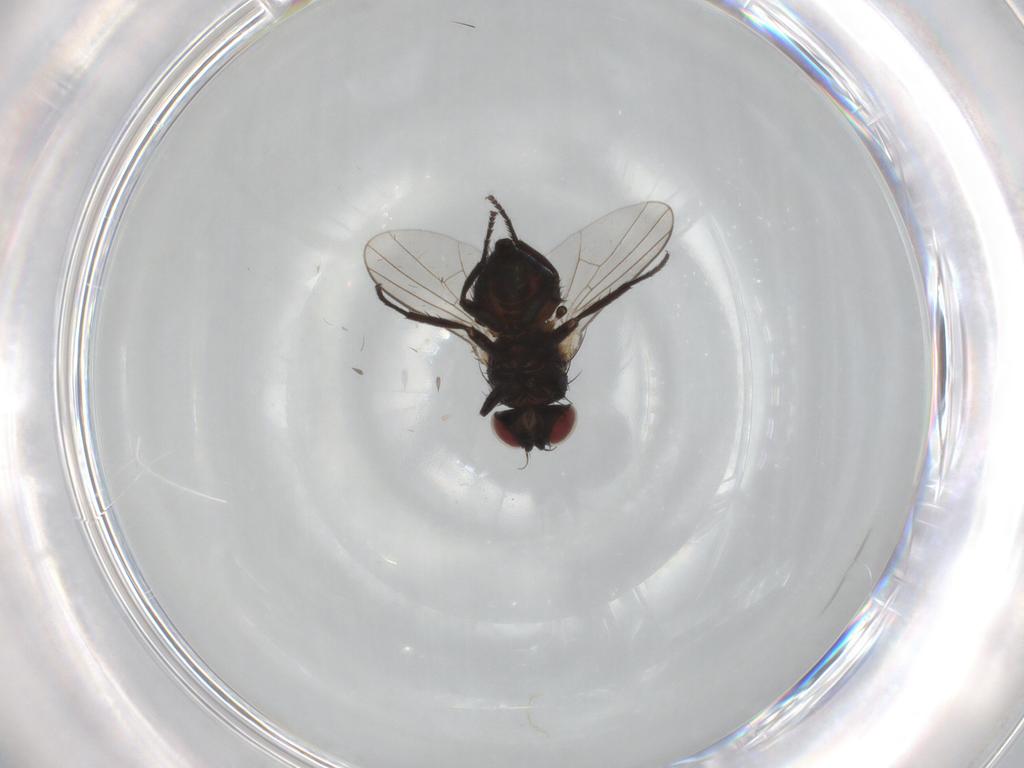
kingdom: Animalia
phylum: Arthropoda
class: Insecta
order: Diptera
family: Agromyzidae
